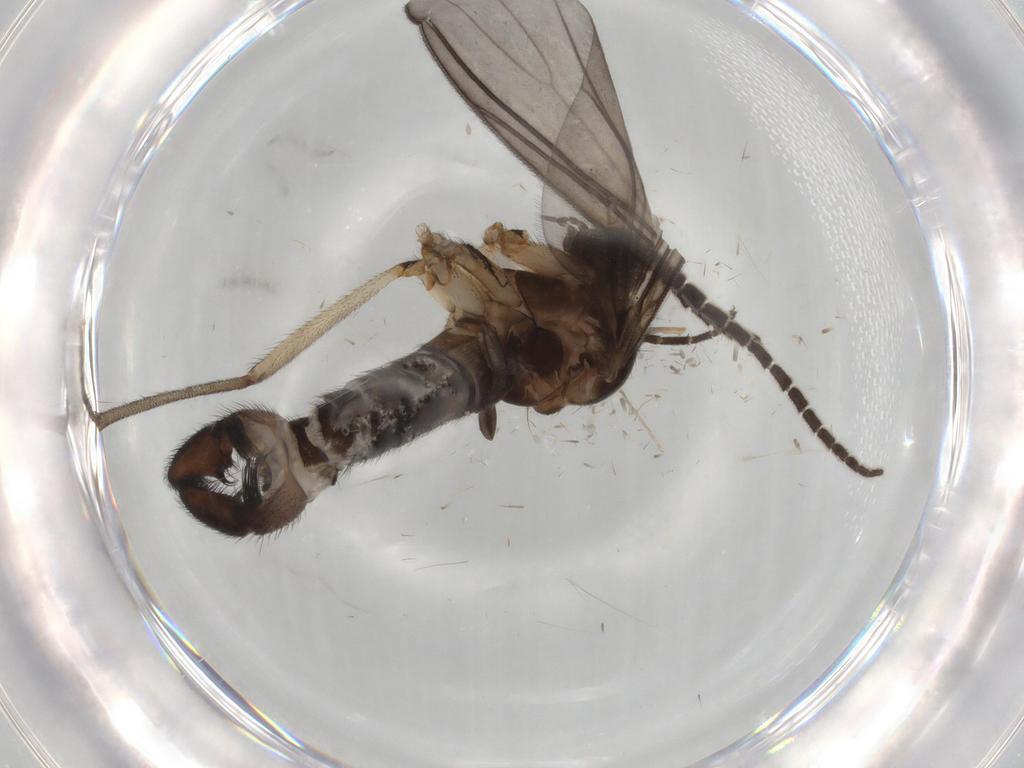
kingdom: Animalia
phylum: Arthropoda
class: Insecta
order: Diptera
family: Sciaridae
